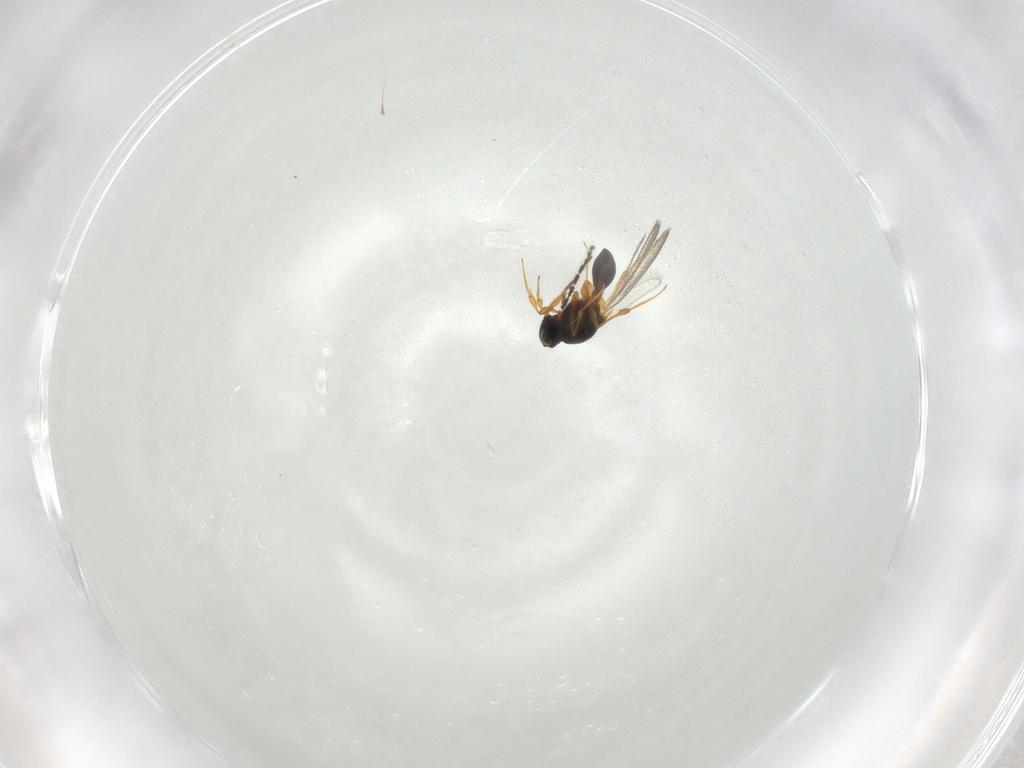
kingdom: Animalia
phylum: Arthropoda
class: Insecta
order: Hymenoptera
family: Platygastridae
